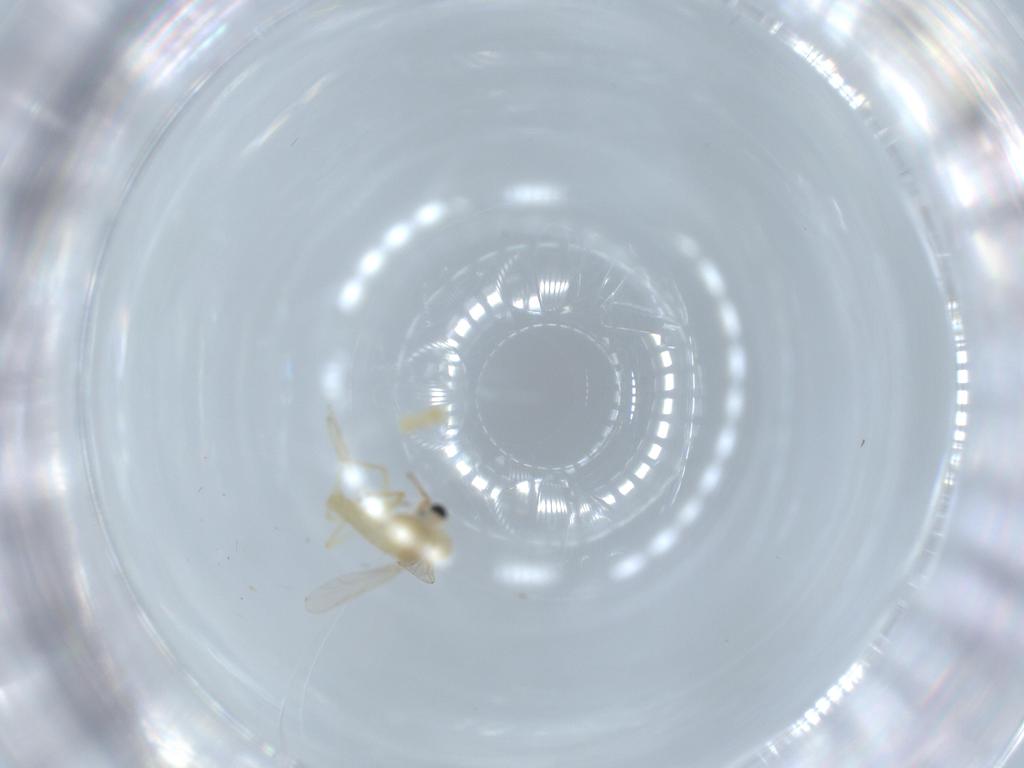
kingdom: Animalia
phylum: Arthropoda
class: Insecta
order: Diptera
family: Chironomidae
